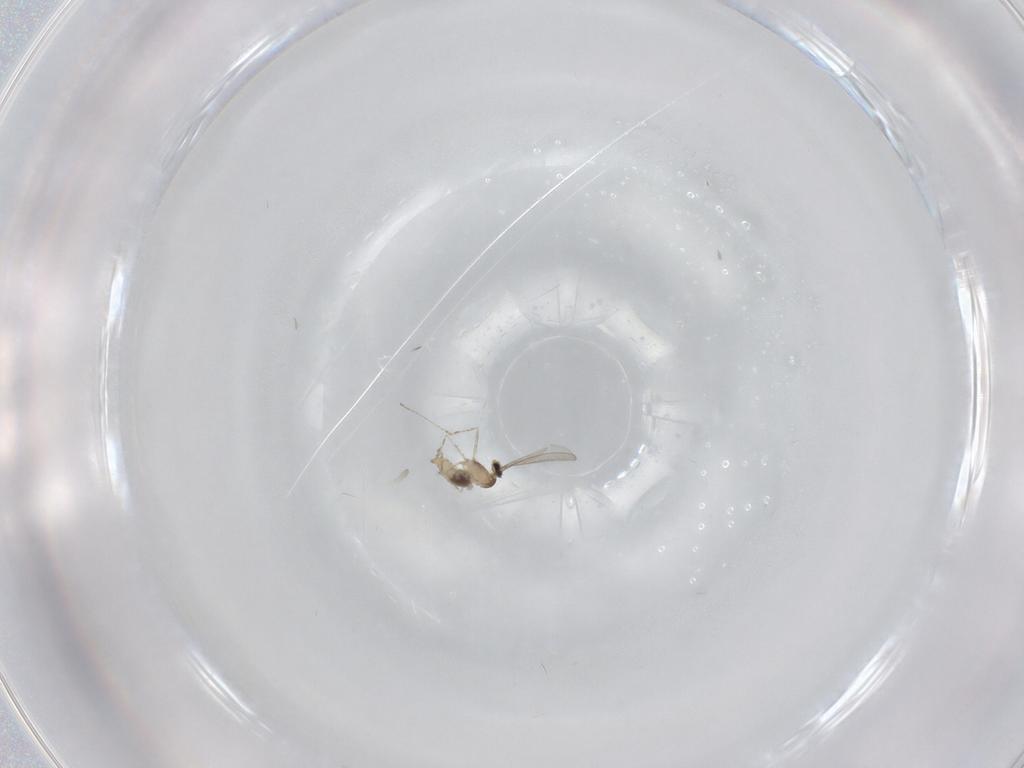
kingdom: Animalia
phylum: Arthropoda
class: Insecta
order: Diptera
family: Cecidomyiidae
